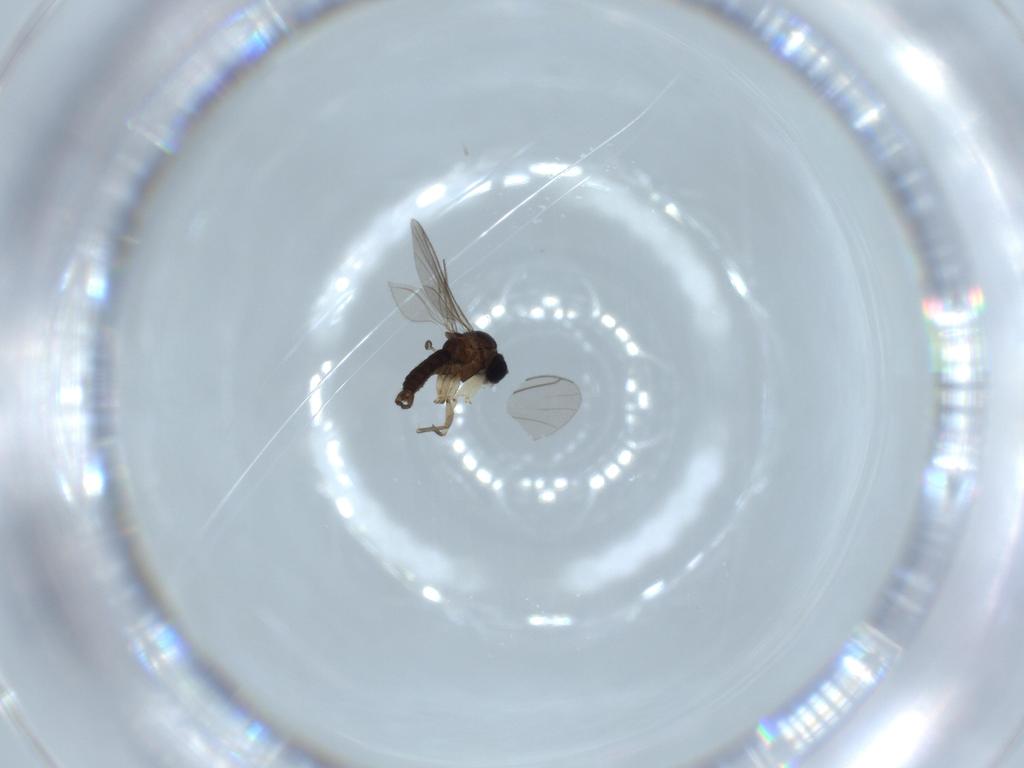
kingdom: Animalia
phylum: Arthropoda
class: Insecta
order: Diptera
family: Sciaridae
